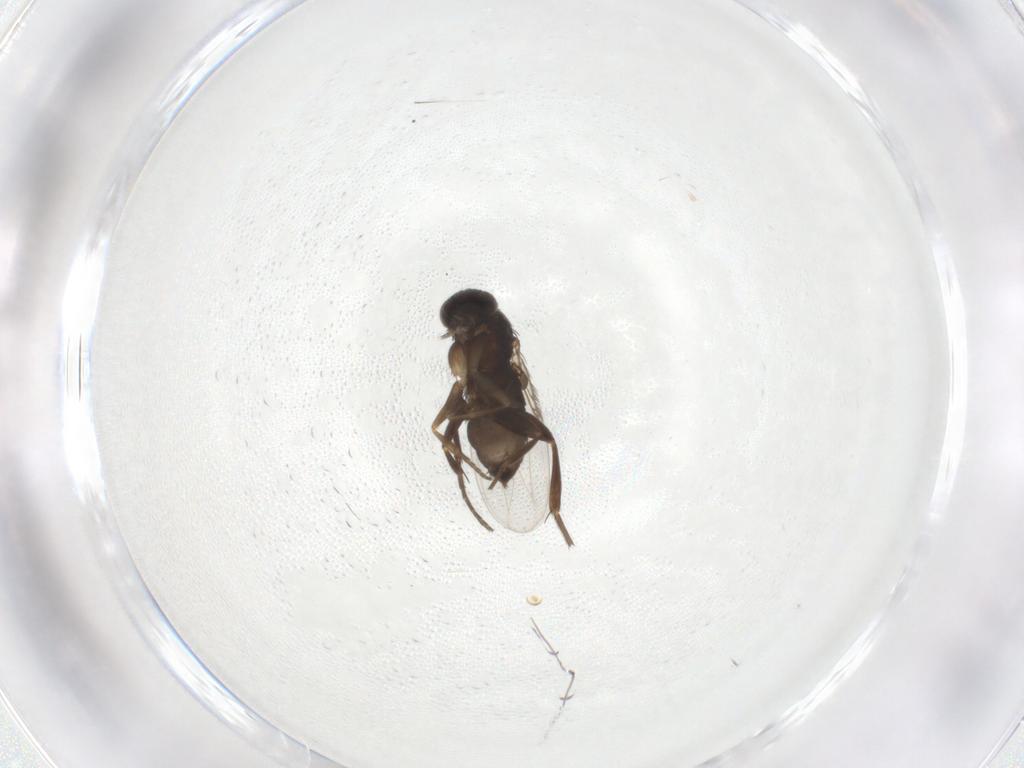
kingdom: Animalia
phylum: Arthropoda
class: Insecta
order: Diptera
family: Phoridae
